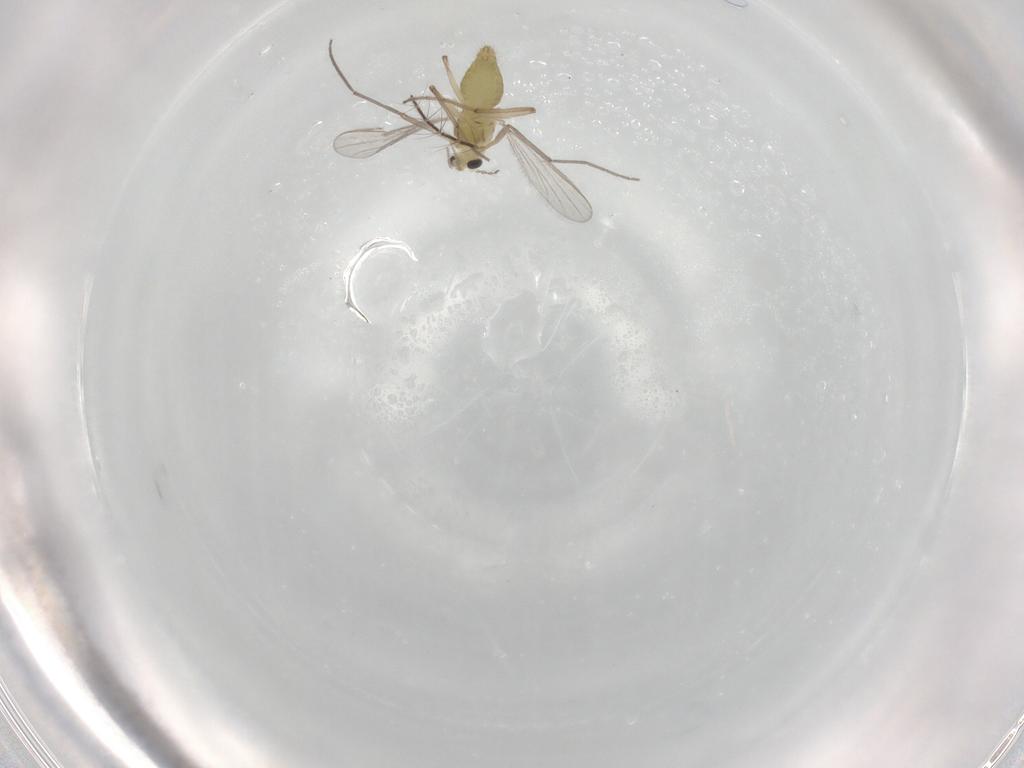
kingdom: Animalia
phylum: Arthropoda
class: Insecta
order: Diptera
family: Chironomidae
